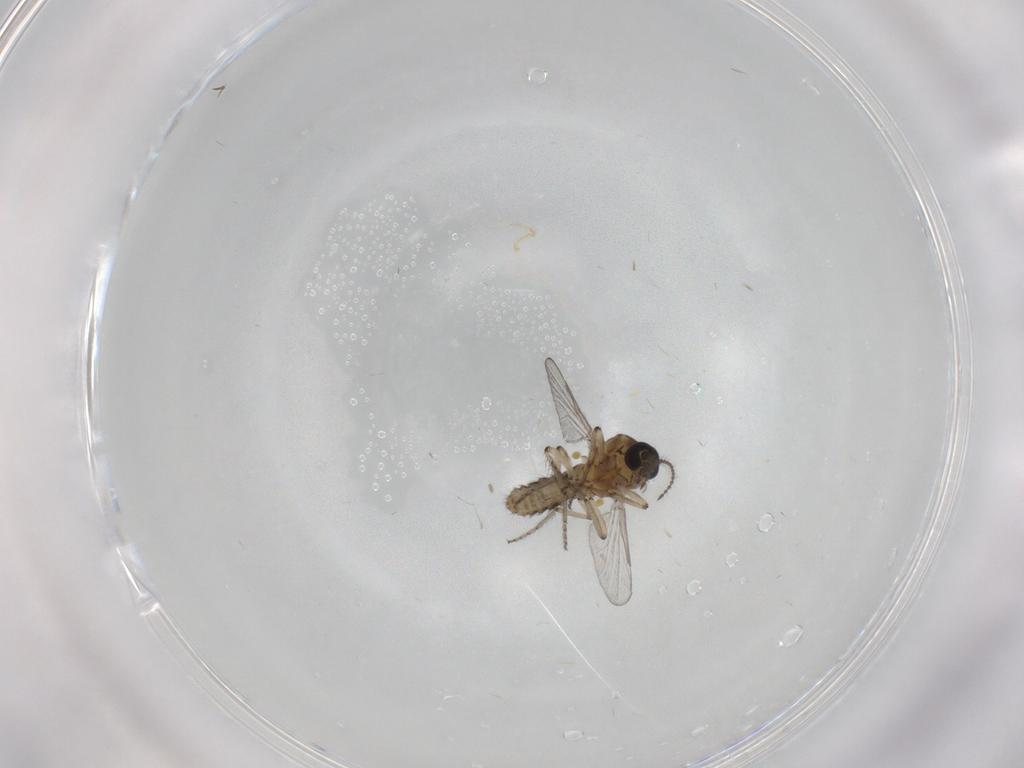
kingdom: Animalia
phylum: Arthropoda
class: Insecta
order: Diptera
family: Ceratopogonidae
